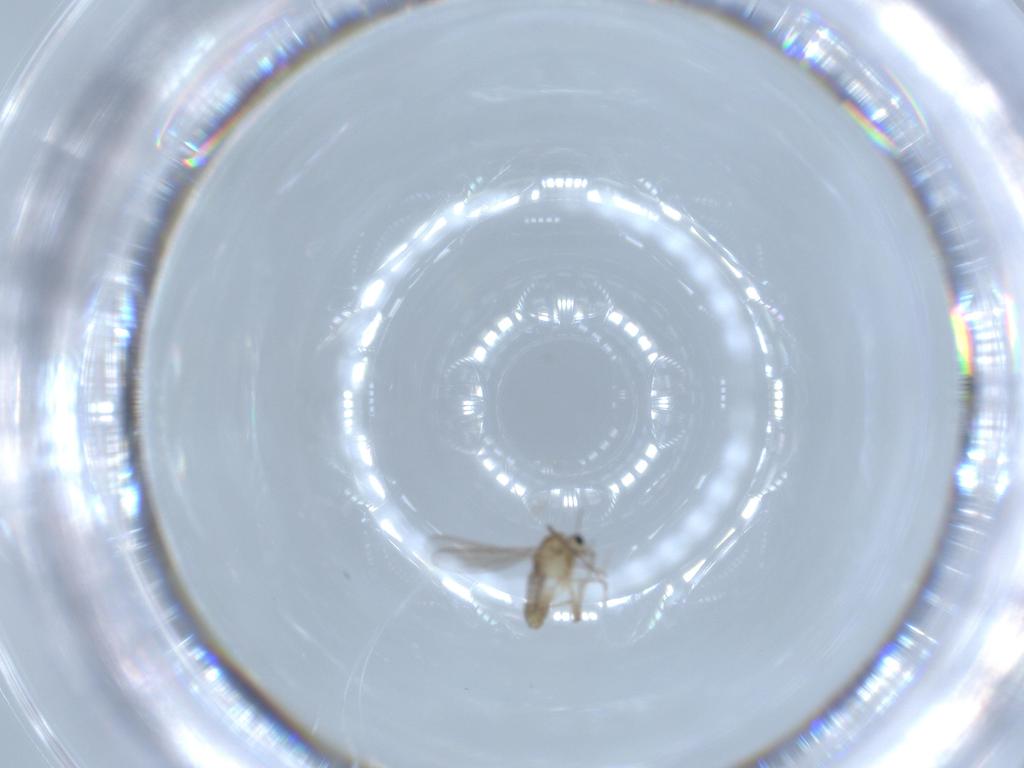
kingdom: Animalia
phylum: Arthropoda
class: Insecta
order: Diptera
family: Chironomidae
